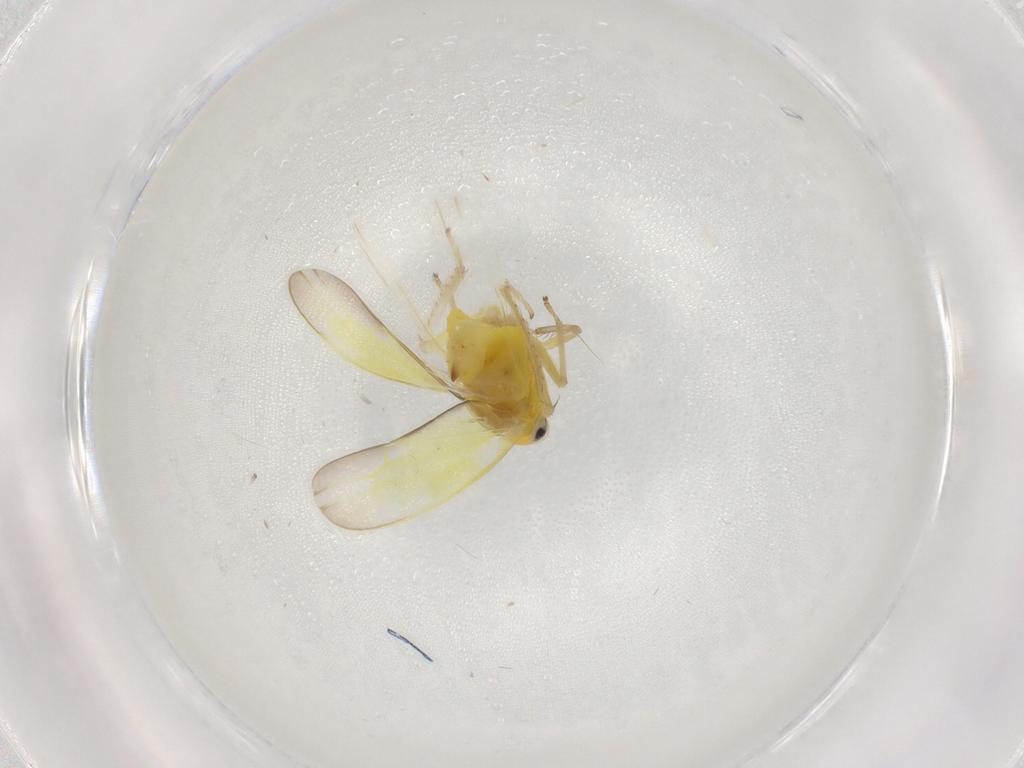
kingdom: Animalia
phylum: Arthropoda
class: Insecta
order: Hemiptera
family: Cicadellidae
